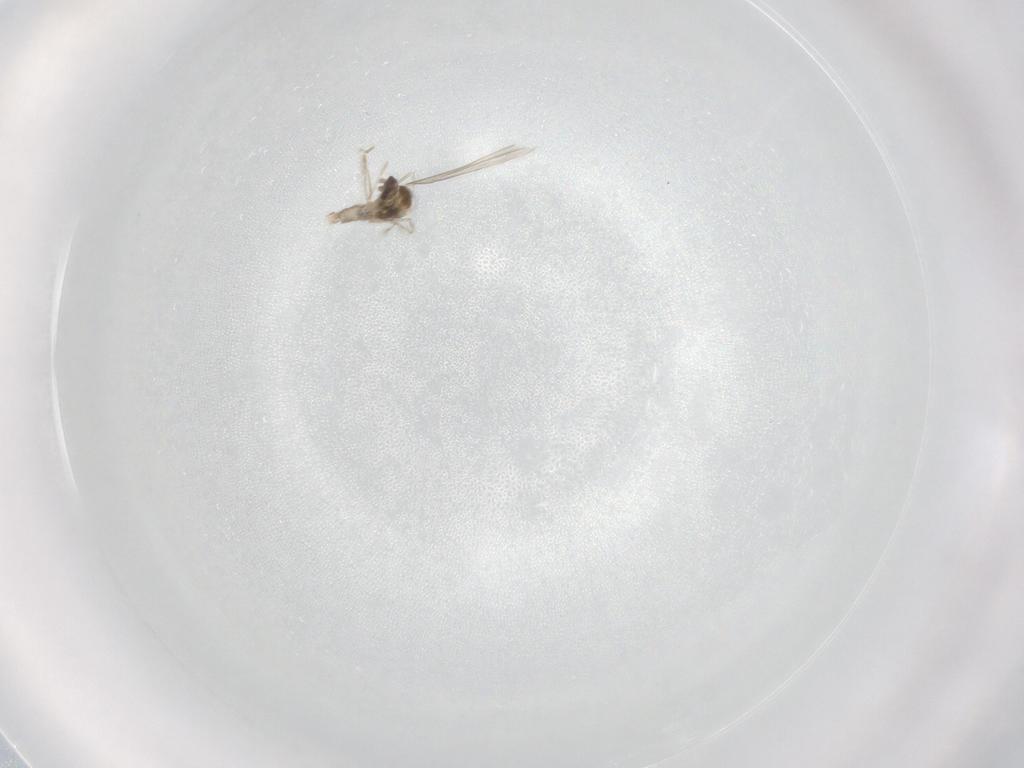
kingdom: Animalia
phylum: Arthropoda
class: Insecta
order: Diptera
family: Cecidomyiidae
